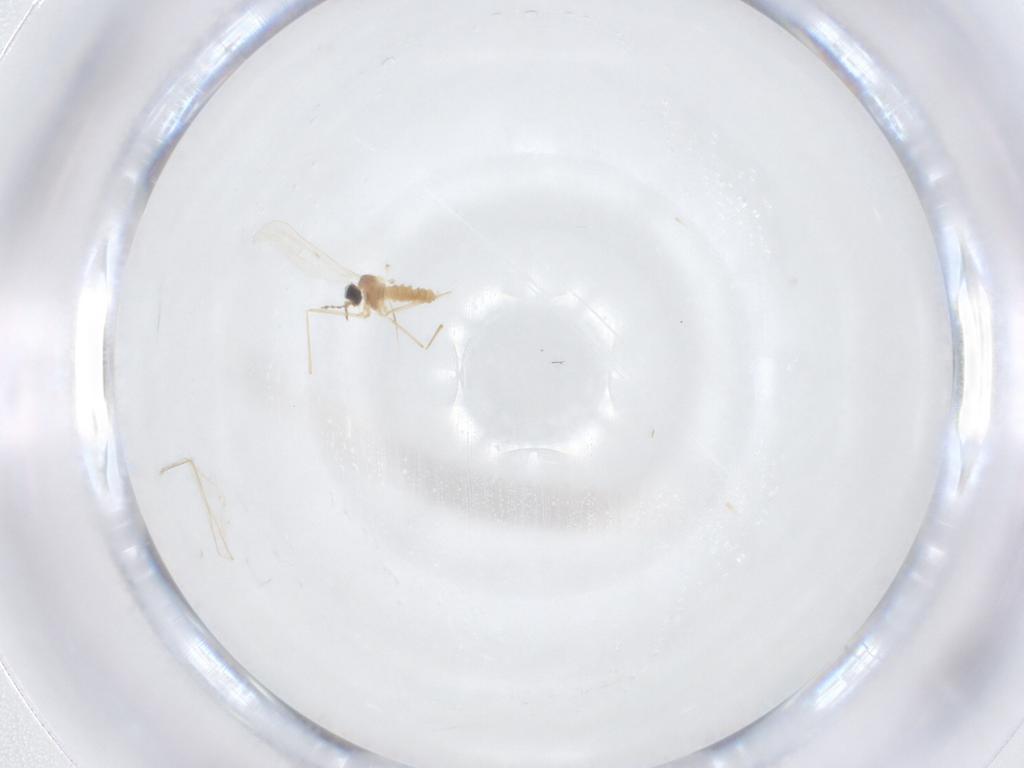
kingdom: Animalia
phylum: Arthropoda
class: Insecta
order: Diptera
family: Cecidomyiidae
